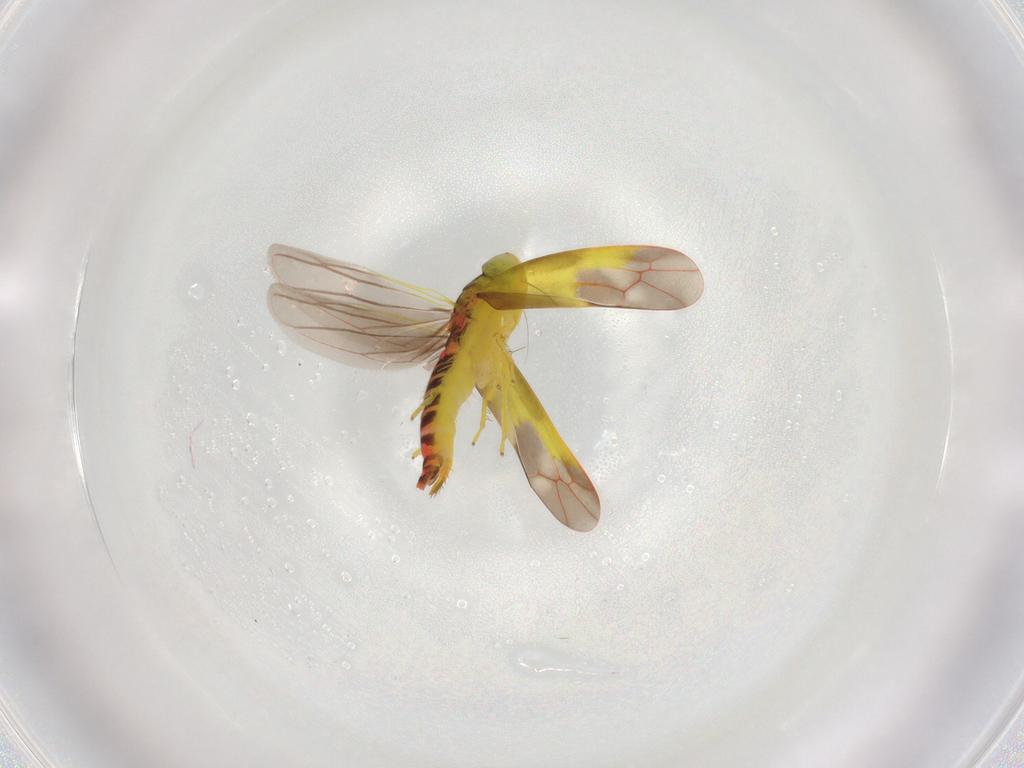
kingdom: Animalia
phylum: Arthropoda
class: Insecta
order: Hemiptera
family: Cicadellidae
